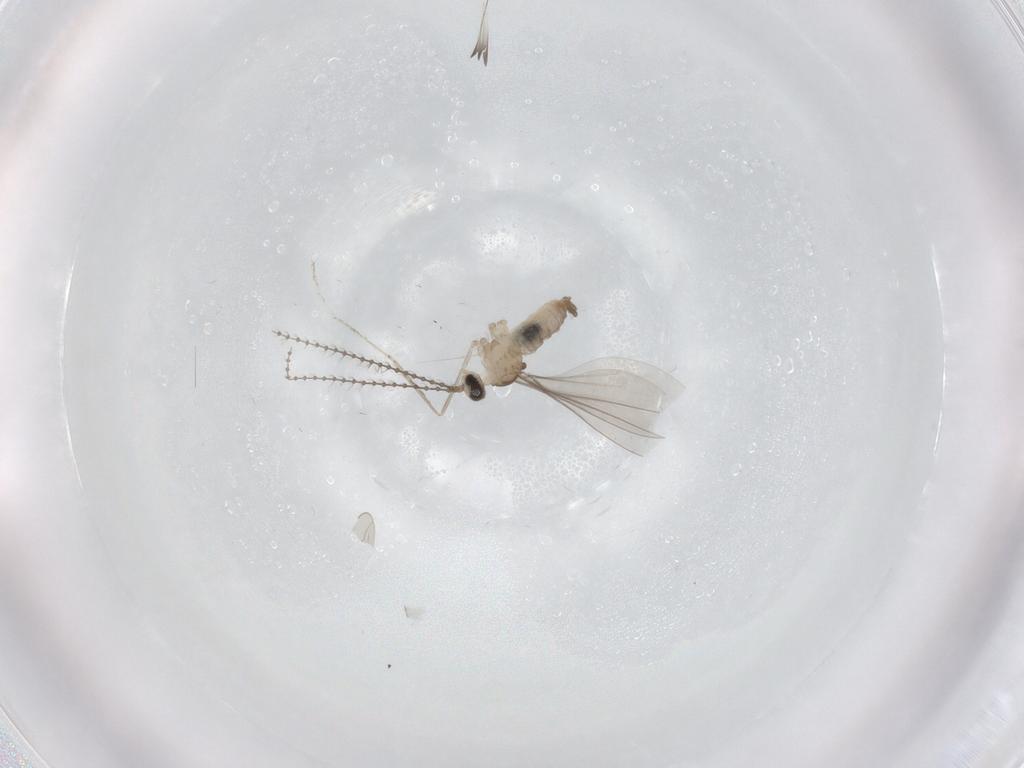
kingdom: Animalia
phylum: Arthropoda
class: Insecta
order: Diptera
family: Cecidomyiidae
